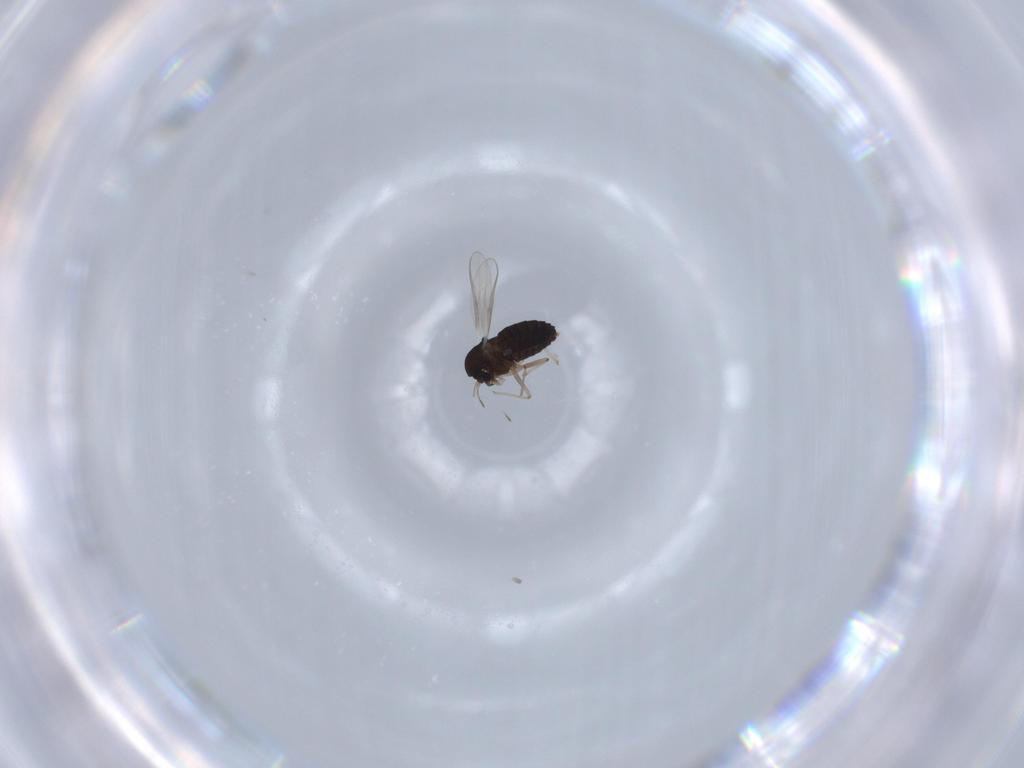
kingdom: Animalia
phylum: Arthropoda
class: Insecta
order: Diptera
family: Chironomidae
